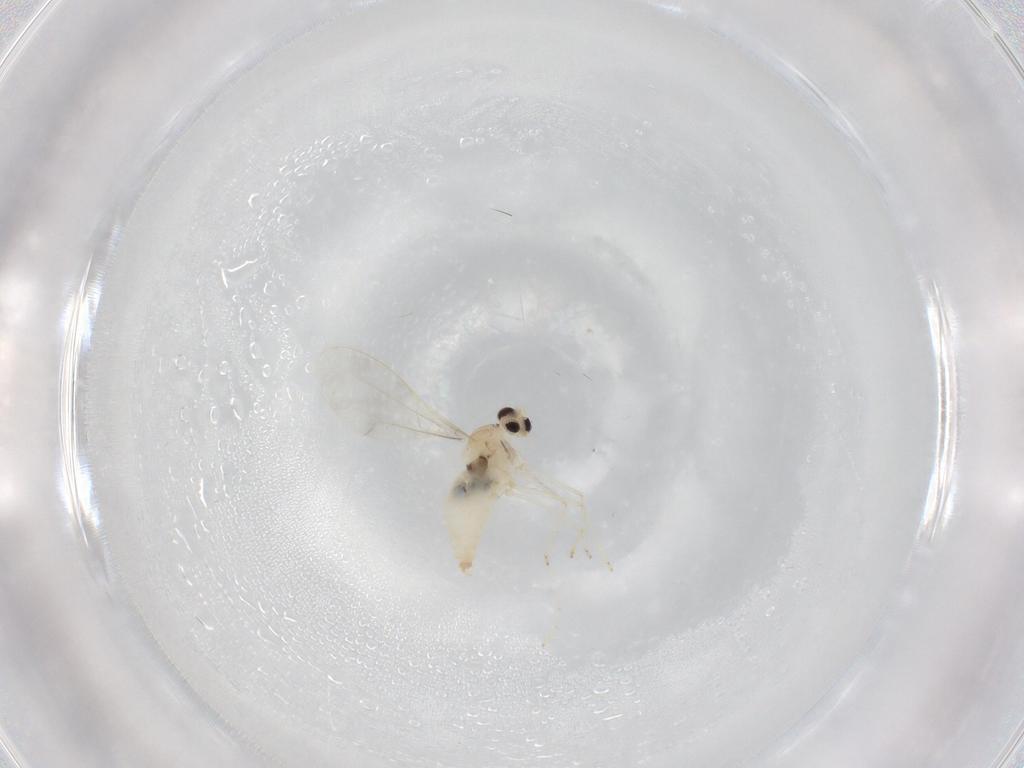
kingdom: Animalia
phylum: Arthropoda
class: Insecta
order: Diptera
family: Cecidomyiidae
